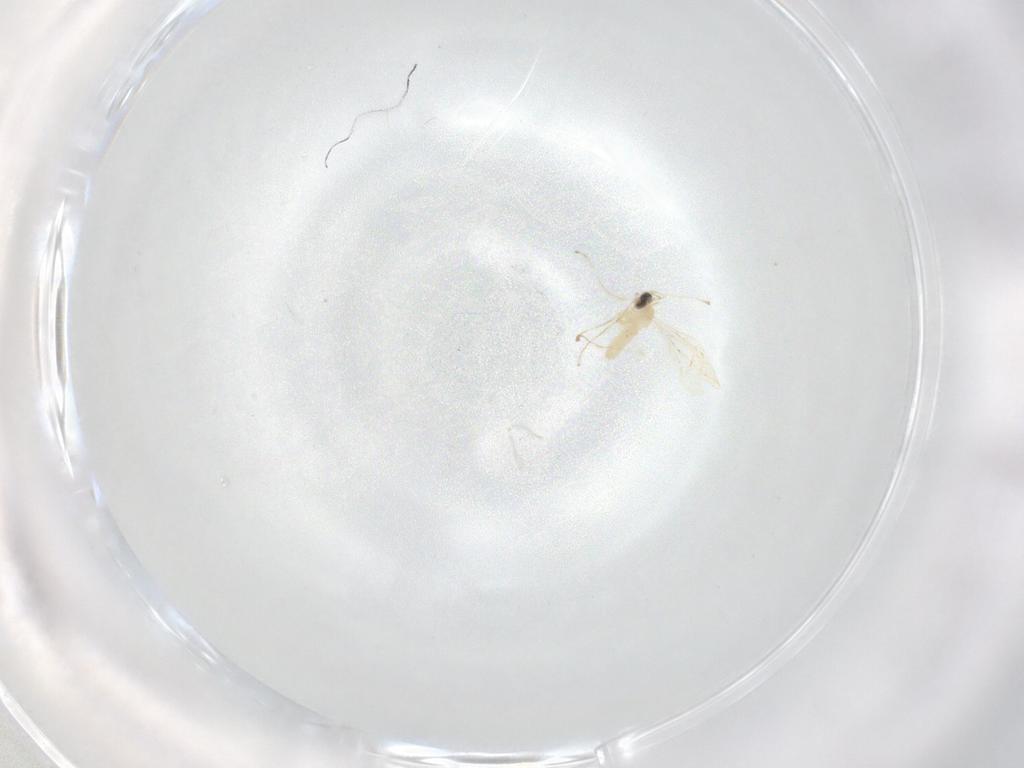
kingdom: Animalia
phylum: Arthropoda
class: Insecta
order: Diptera
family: Cecidomyiidae
